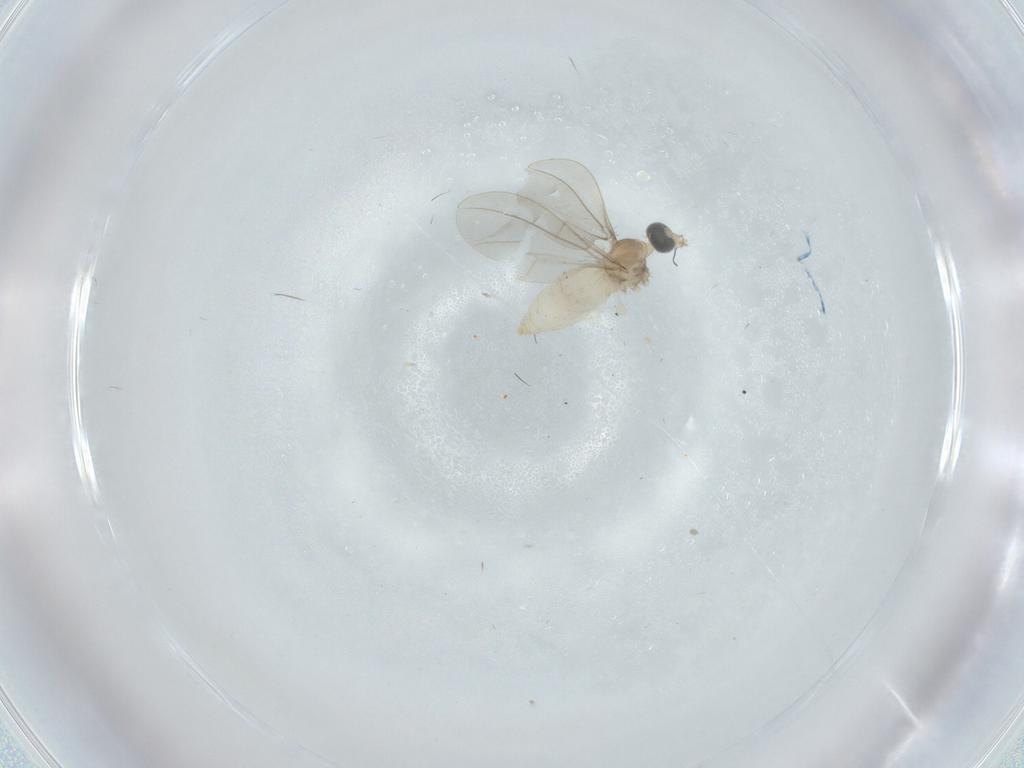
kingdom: Animalia
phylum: Arthropoda
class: Insecta
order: Diptera
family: Cecidomyiidae
